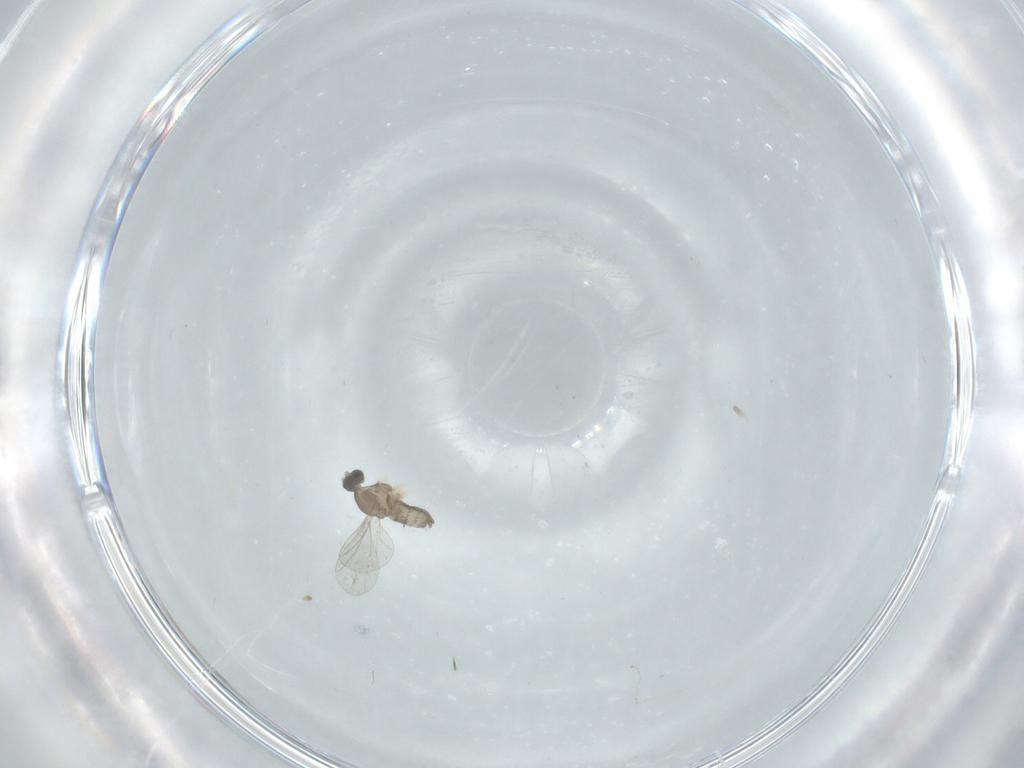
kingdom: Animalia
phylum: Arthropoda
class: Insecta
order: Diptera
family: Cecidomyiidae
